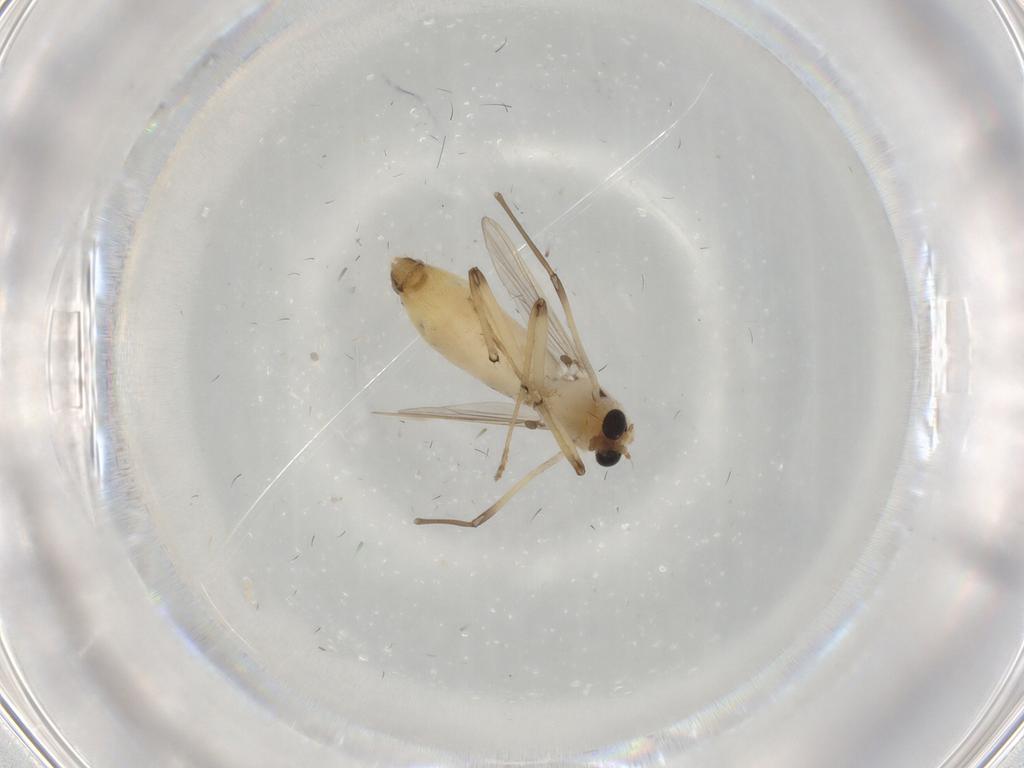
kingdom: Animalia
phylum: Arthropoda
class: Insecta
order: Diptera
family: Chironomidae
